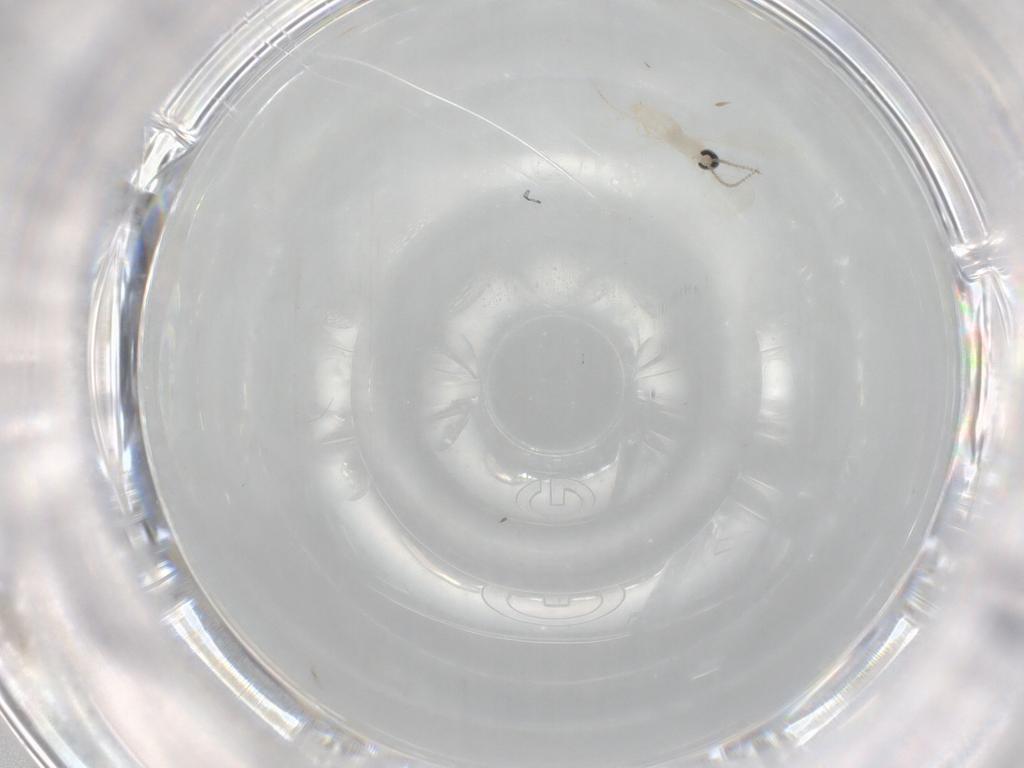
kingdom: Animalia
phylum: Arthropoda
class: Insecta
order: Diptera
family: Cecidomyiidae
